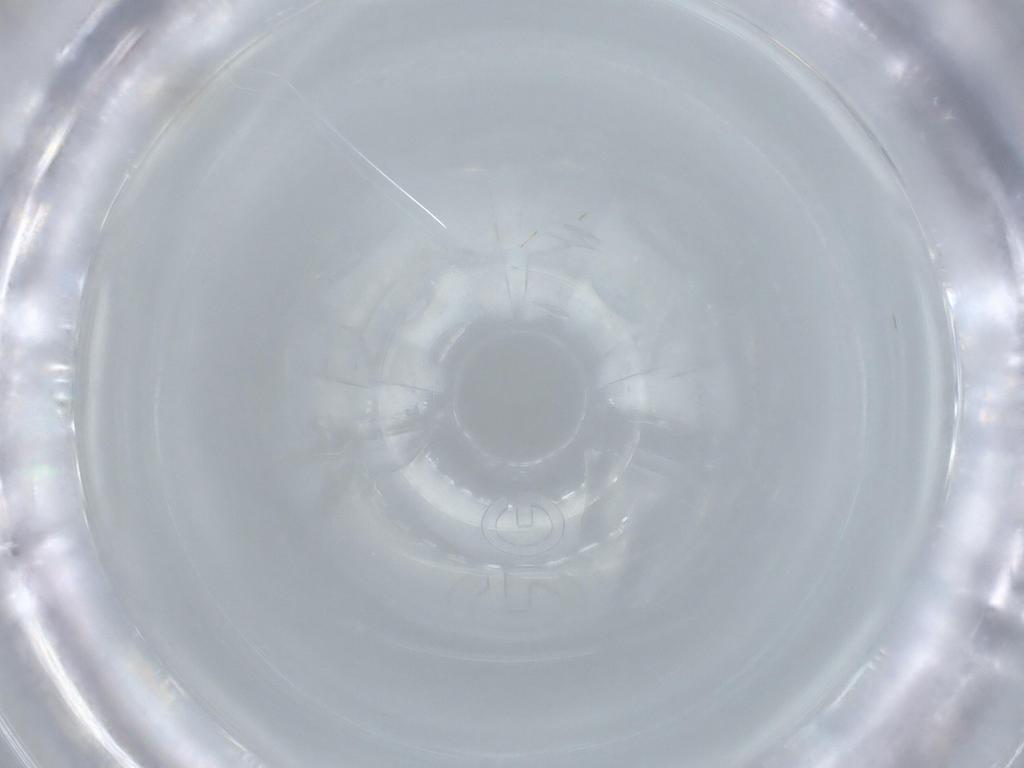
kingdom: Animalia
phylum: Arthropoda
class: Insecta
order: Hymenoptera
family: Mymaridae
